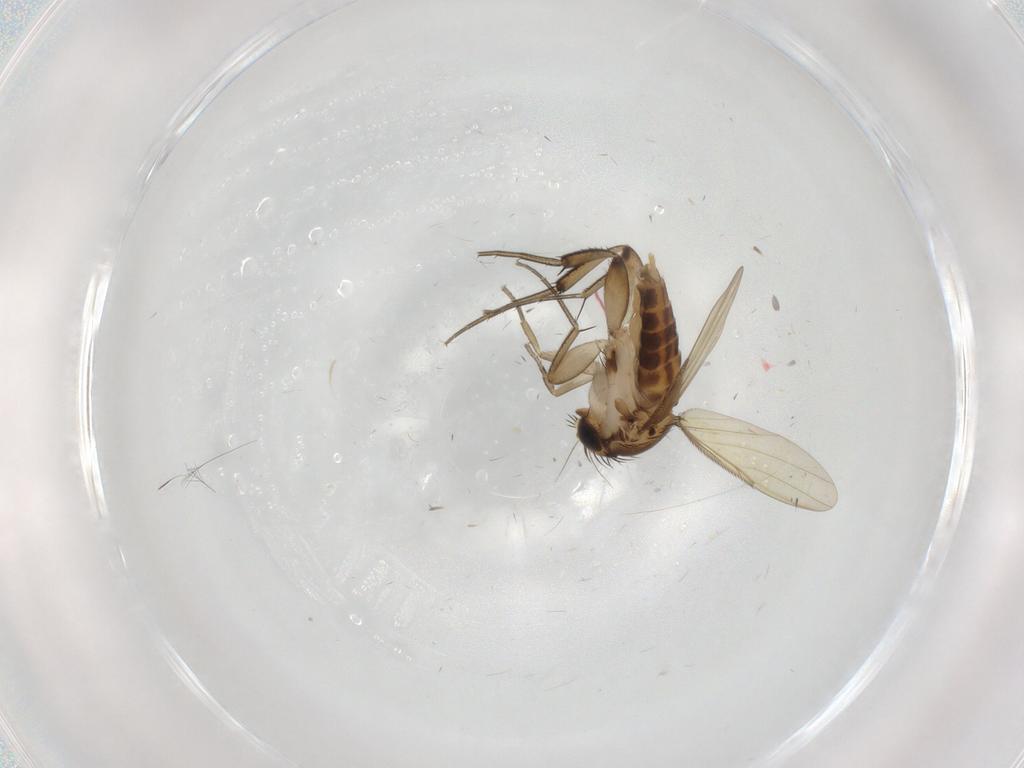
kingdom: Animalia
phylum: Arthropoda
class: Insecta
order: Diptera
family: Phoridae
